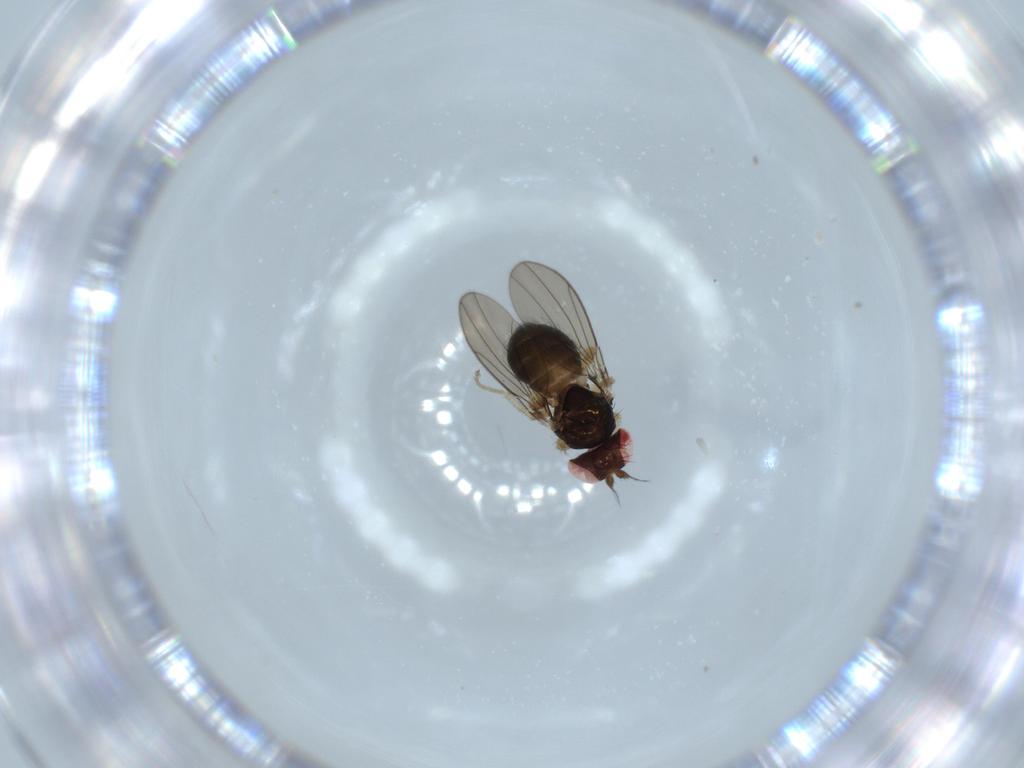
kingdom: Animalia
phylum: Arthropoda
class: Insecta
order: Diptera
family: Drosophilidae
